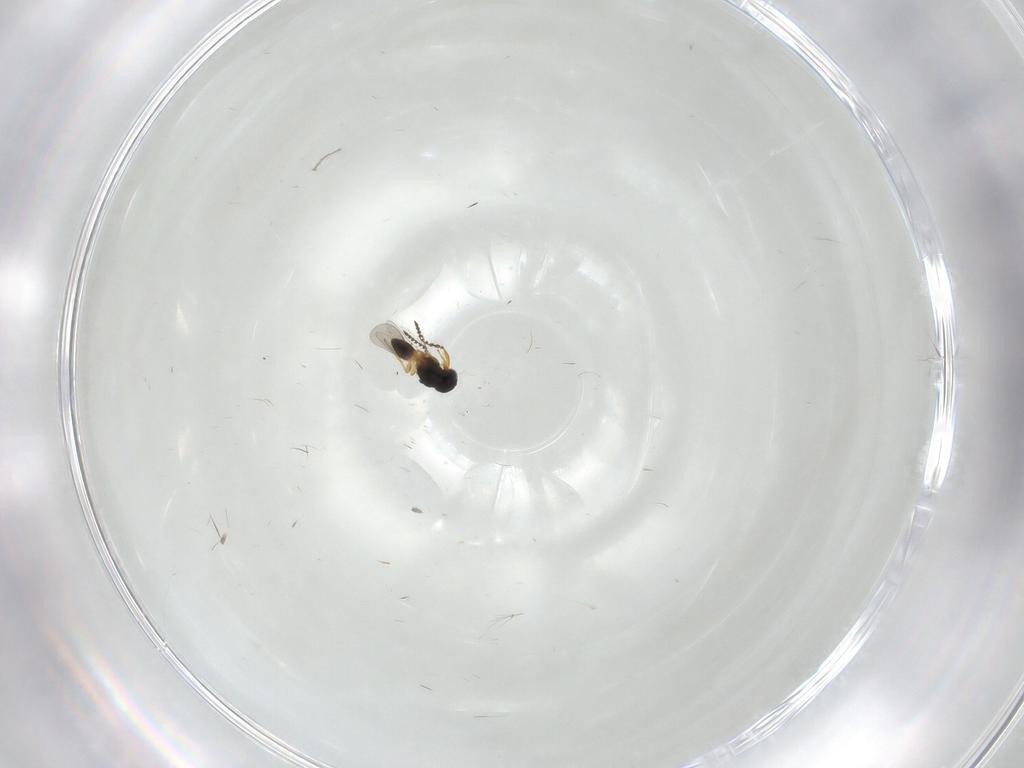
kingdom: Animalia
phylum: Arthropoda
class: Insecta
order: Hymenoptera
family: Platygastridae
